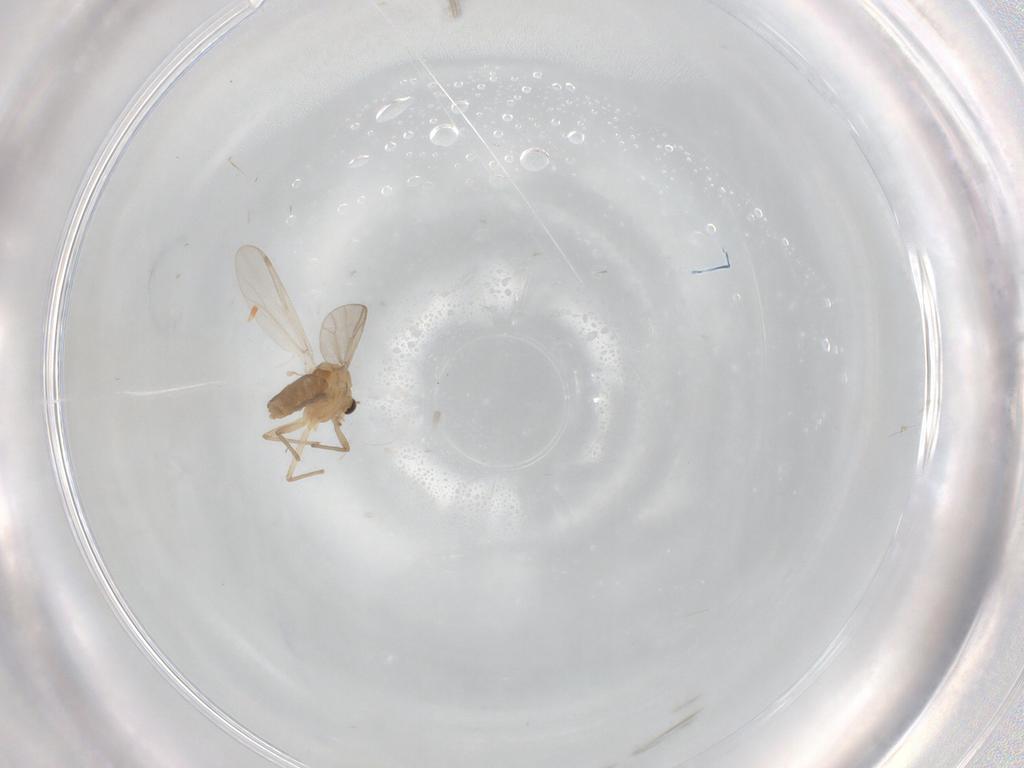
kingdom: Animalia
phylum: Arthropoda
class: Insecta
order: Diptera
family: Chironomidae
